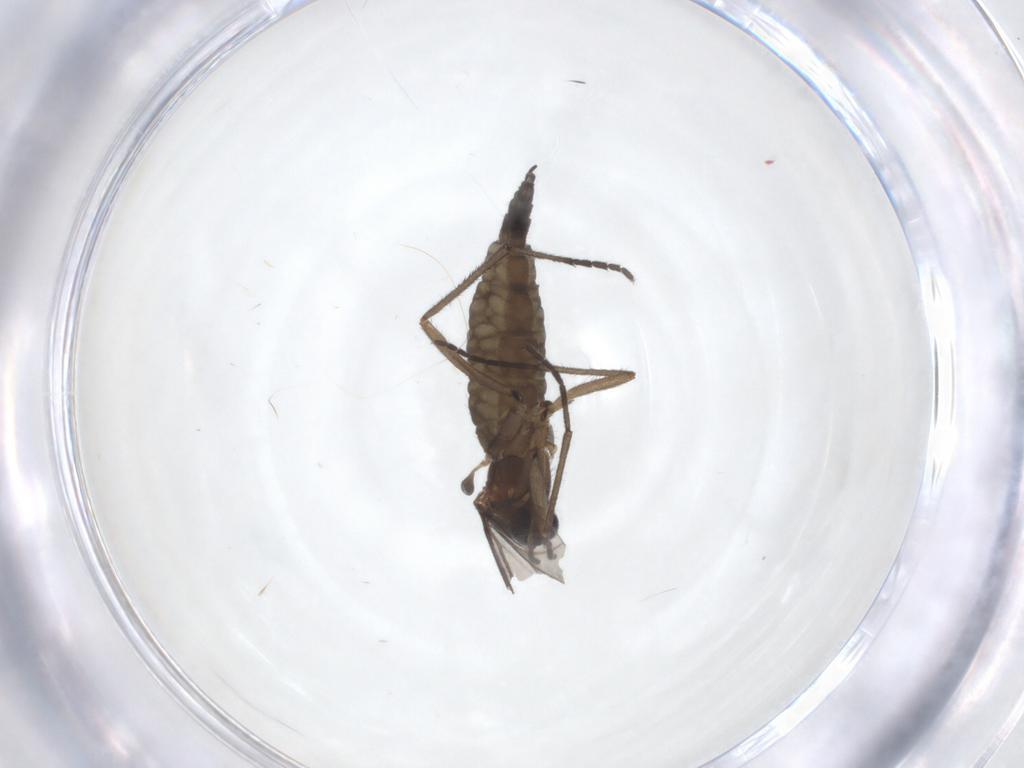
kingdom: Animalia
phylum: Arthropoda
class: Insecta
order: Diptera
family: Sciaridae
